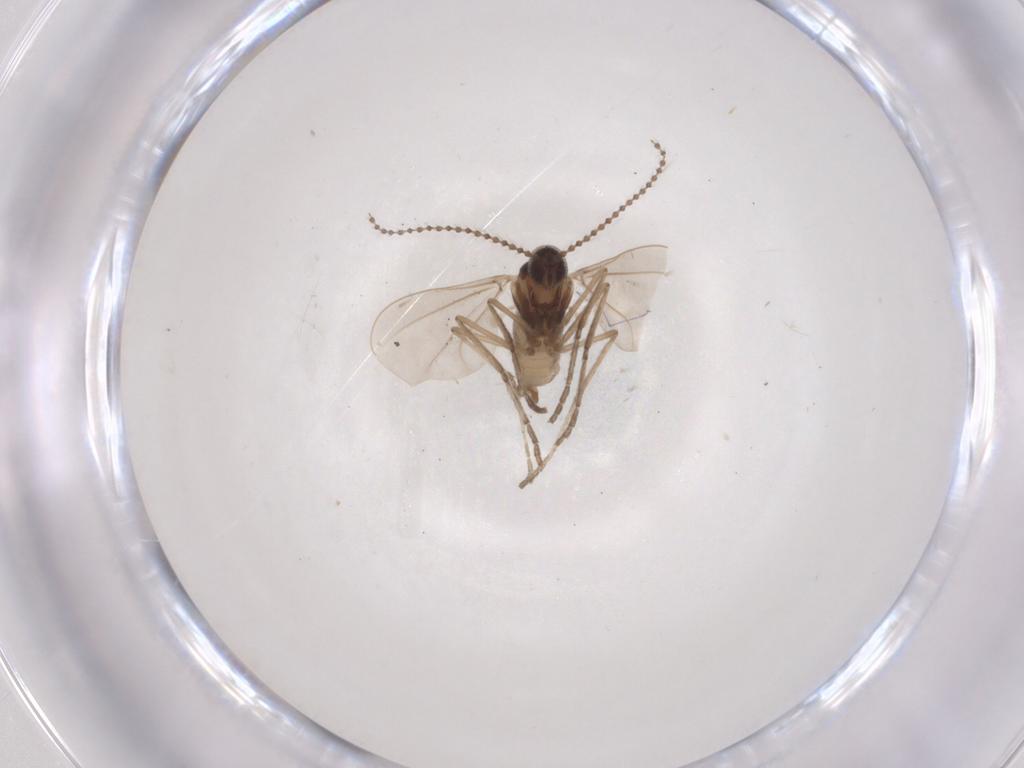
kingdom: Animalia
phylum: Arthropoda
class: Insecta
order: Diptera
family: Cecidomyiidae
